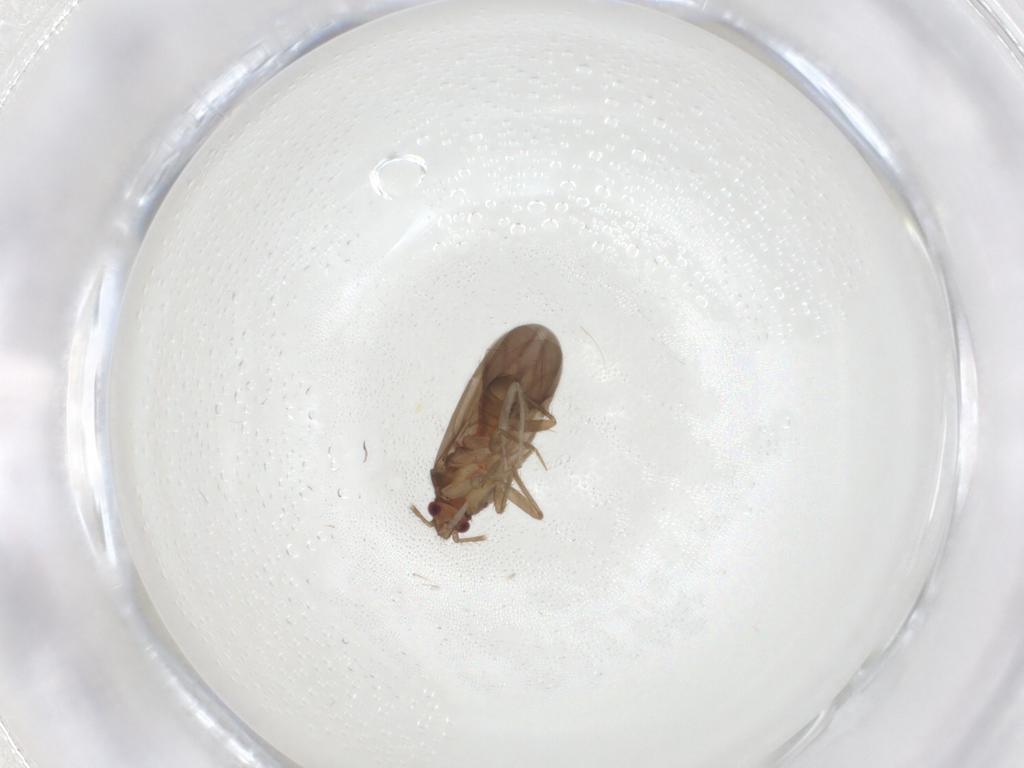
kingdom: Animalia
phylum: Arthropoda
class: Insecta
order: Hemiptera
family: Ceratocombidae
